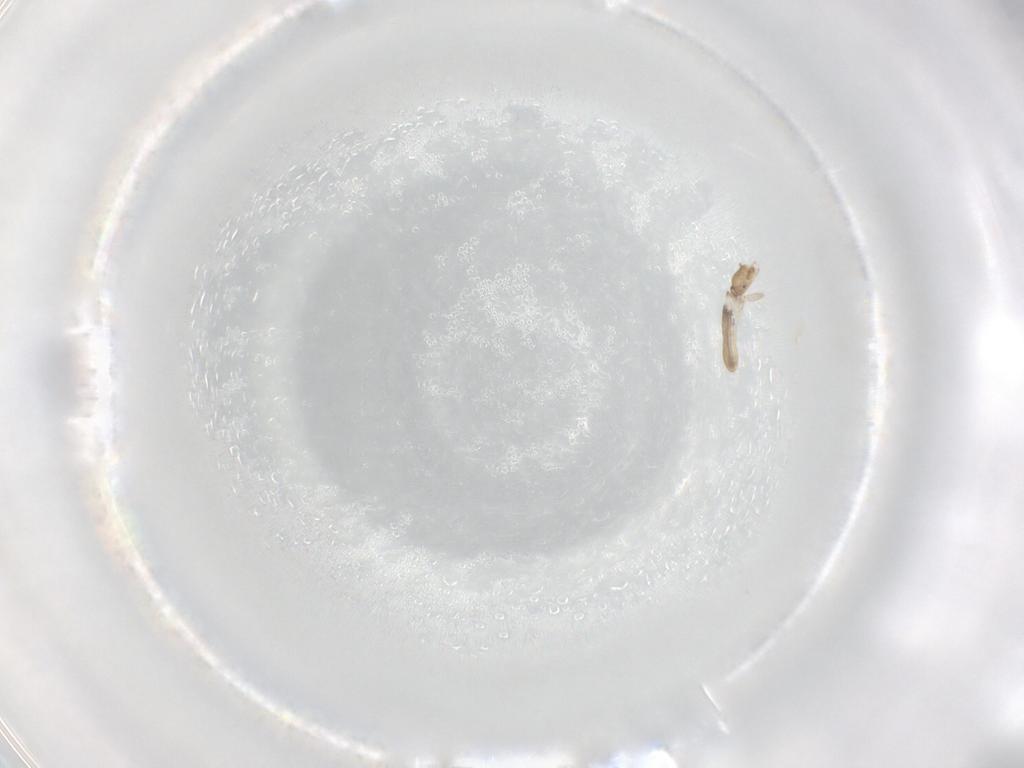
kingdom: Animalia
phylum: Arthropoda
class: Insecta
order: Psocodea
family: Liposcelididae
